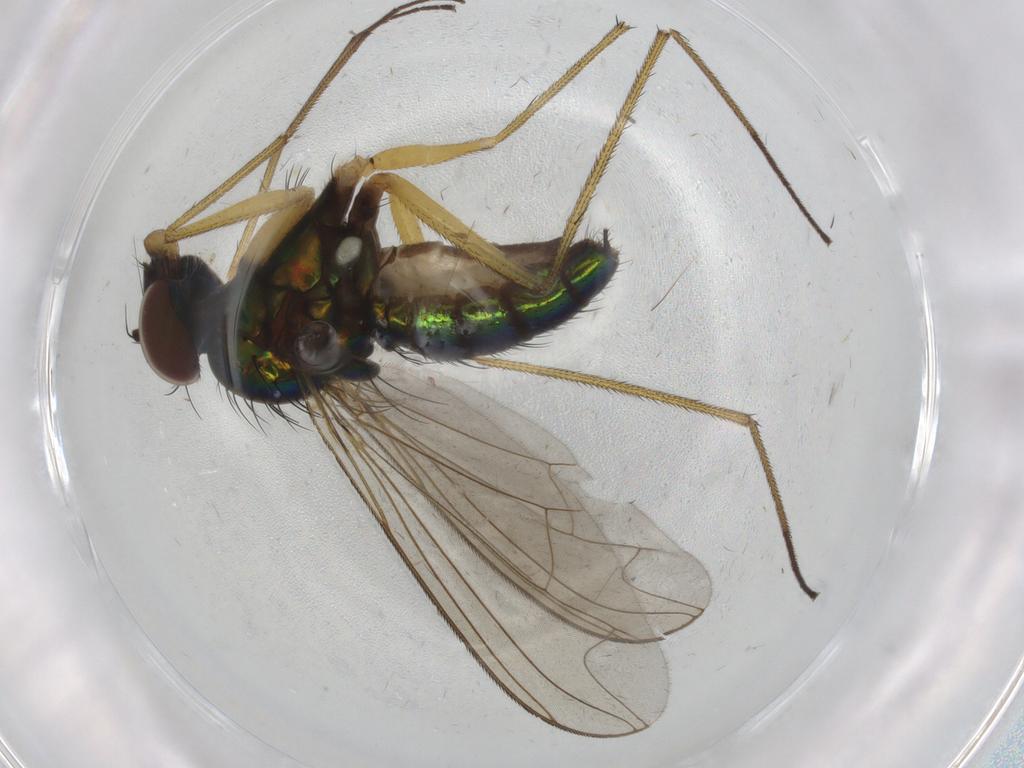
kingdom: Animalia
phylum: Arthropoda
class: Insecta
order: Diptera
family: Dolichopodidae
